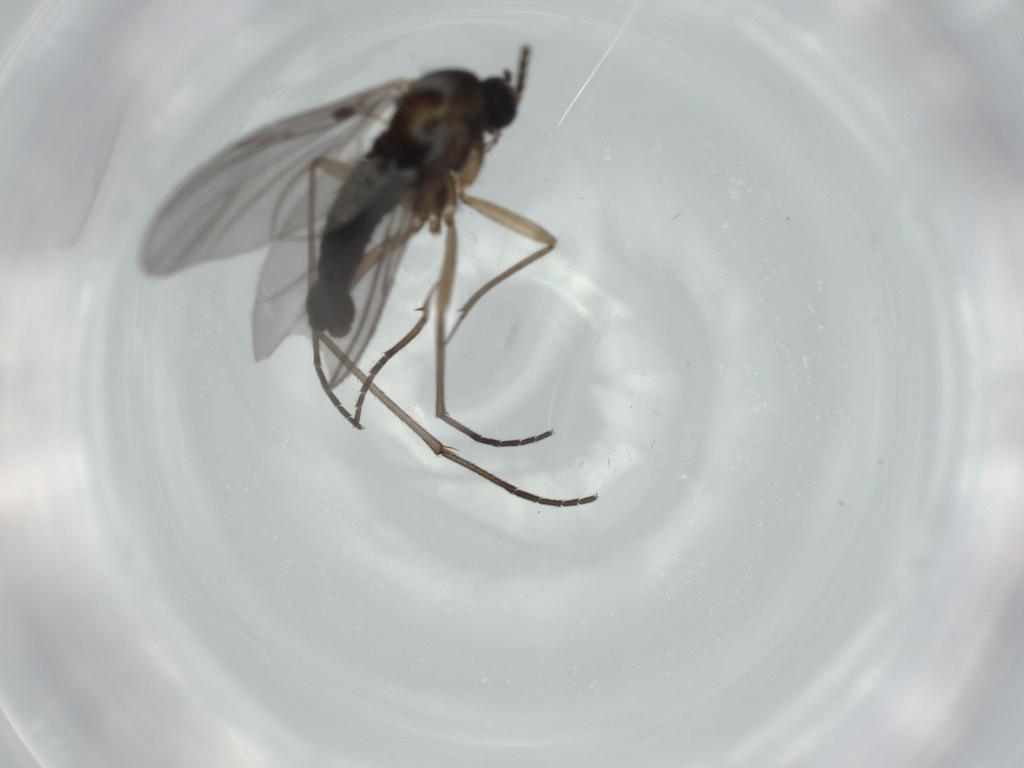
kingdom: Animalia
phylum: Arthropoda
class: Insecta
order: Diptera
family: Sciaridae
